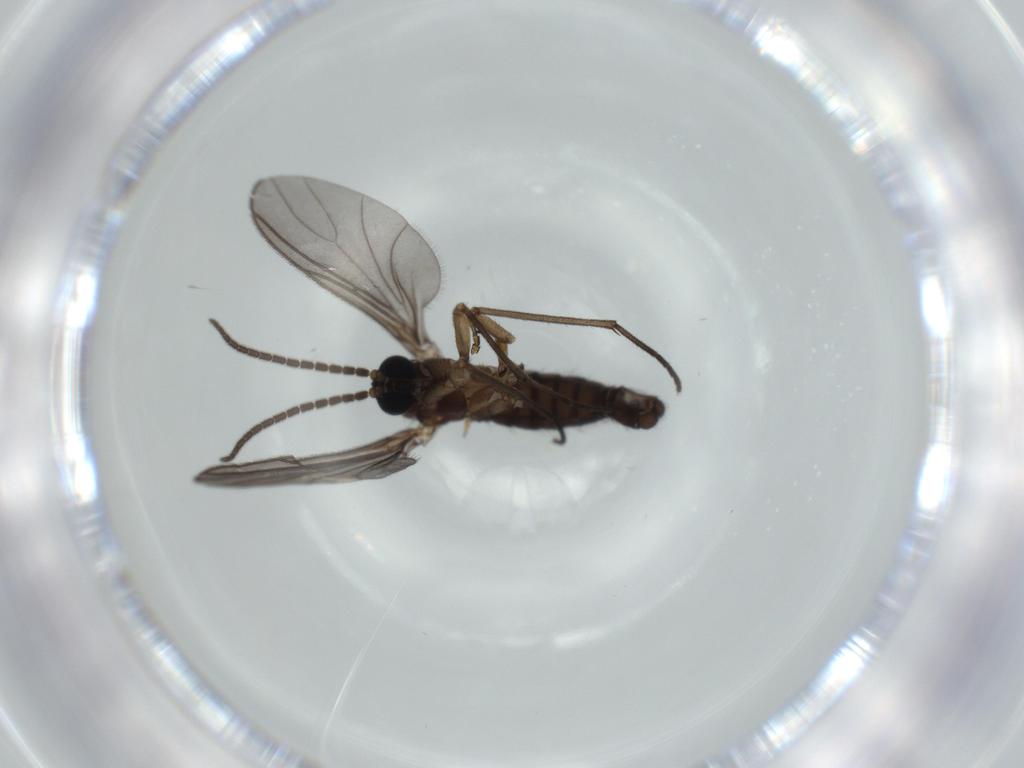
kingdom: Animalia
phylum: Arthropoda
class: Insecta
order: Diptera
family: Sciaridae
